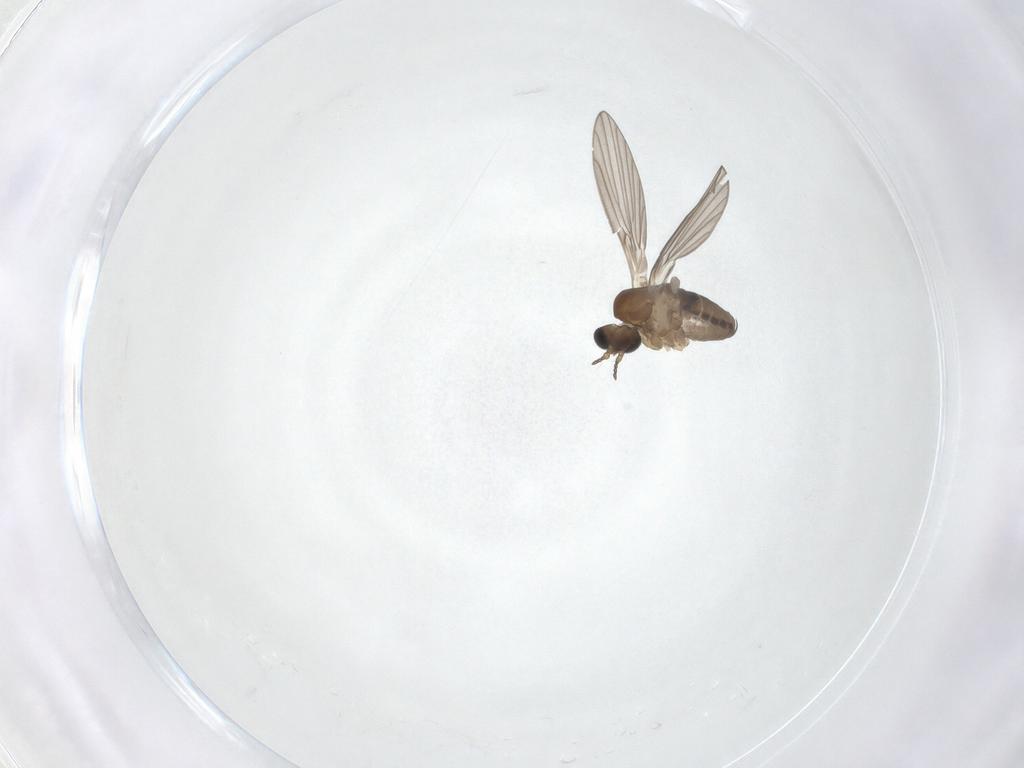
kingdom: Animalia
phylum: Arthropoda
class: Insecta
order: Diptera
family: Psychodidae
